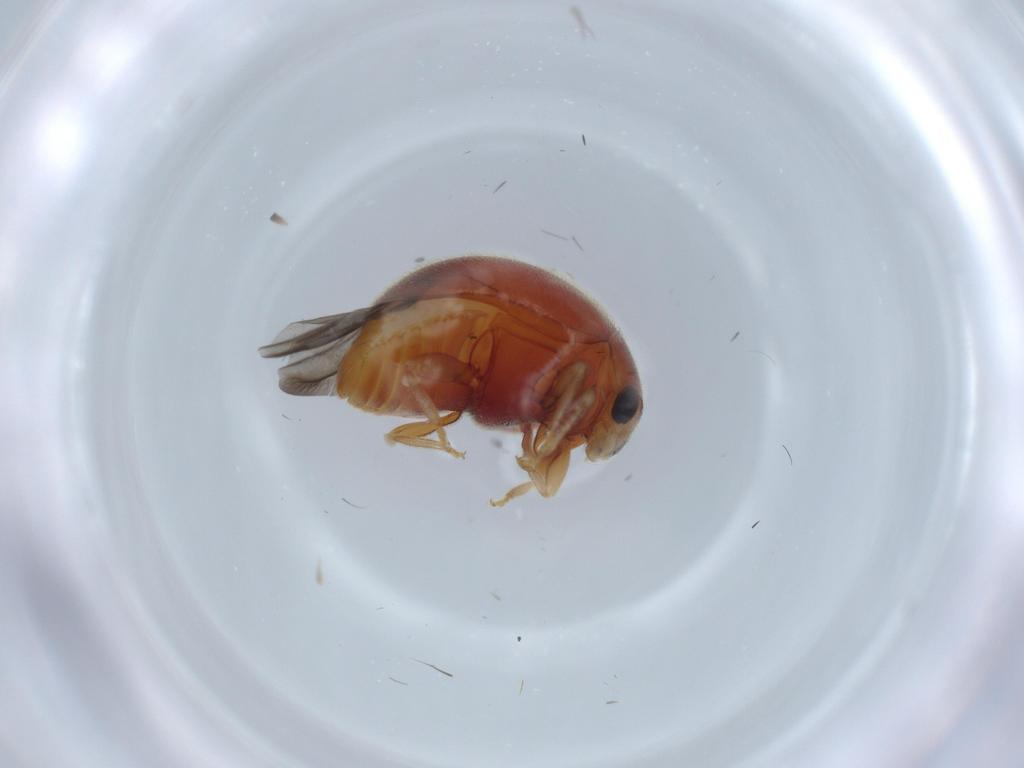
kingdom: Animalia
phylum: Arthropoda
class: Insecta
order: Coleoptera
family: Coccinellidae
